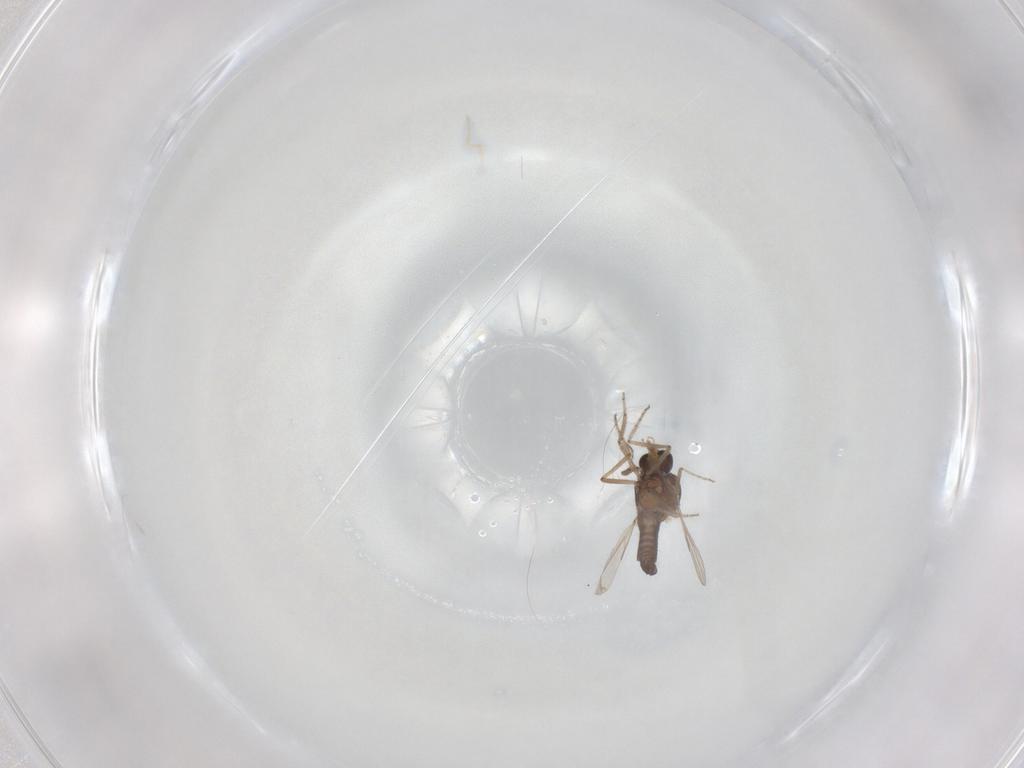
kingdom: Animalia
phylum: Arthropoda
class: Insecta
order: Diptera
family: Ceratopogonidae
